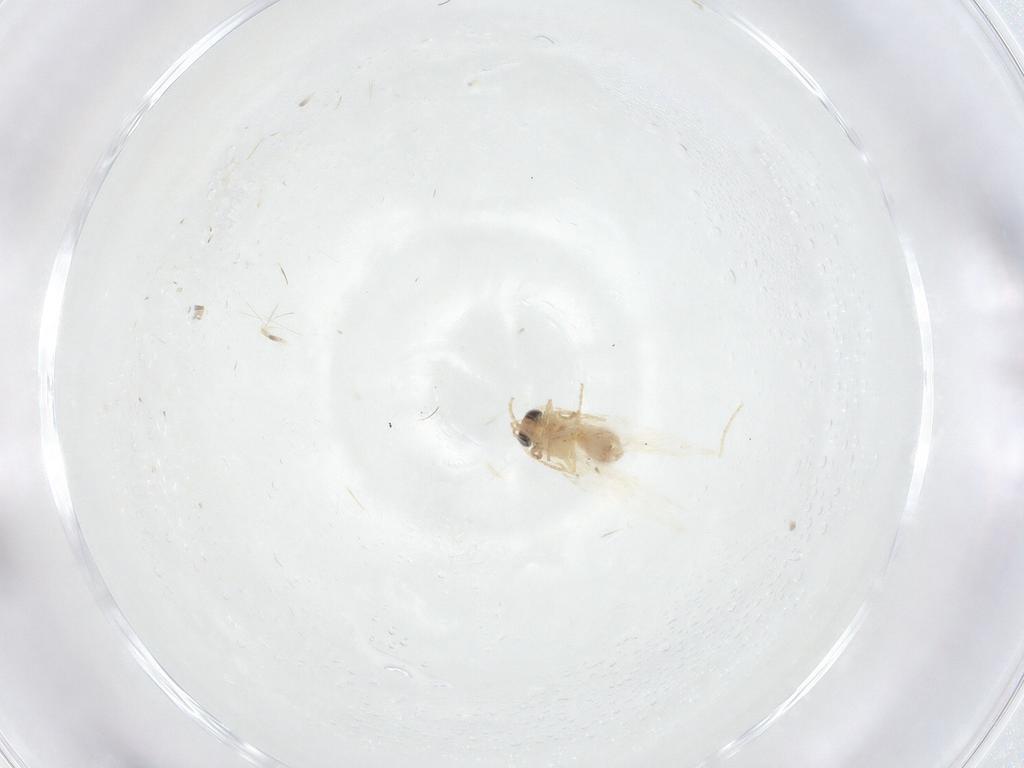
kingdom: Animalia
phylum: Arthropoda
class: Insecta
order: Lepidoptera
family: Nepticulidae
